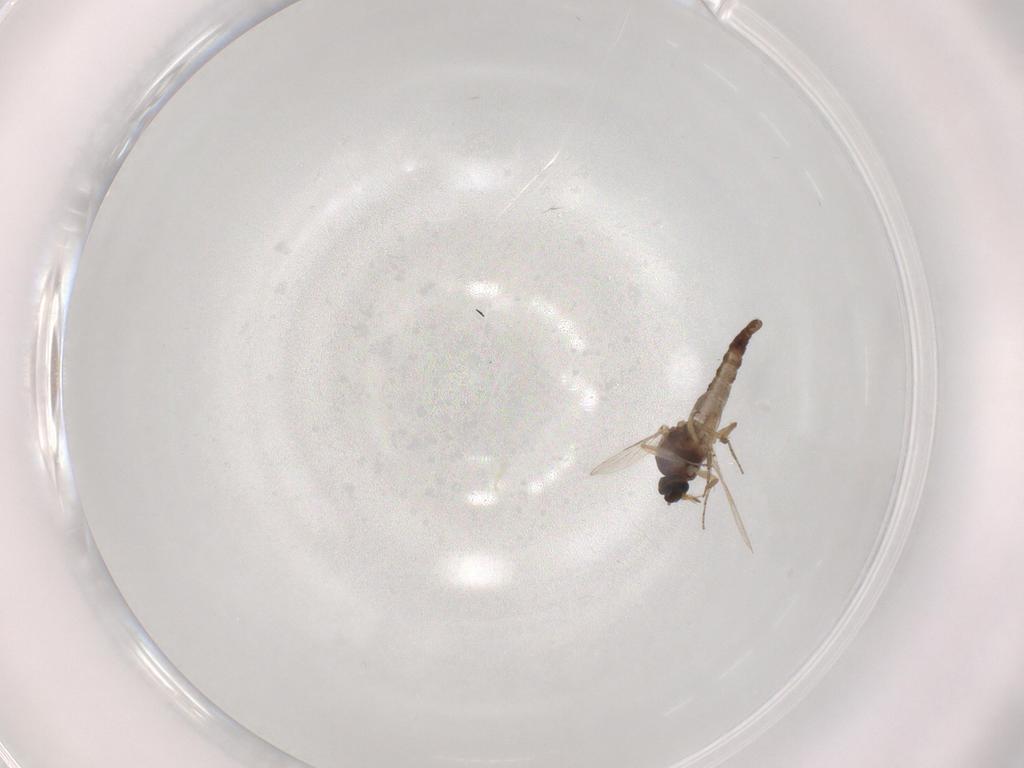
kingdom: Animalia
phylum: Arthropoda
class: Insecta
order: Diptera
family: Ceratopogonidae
